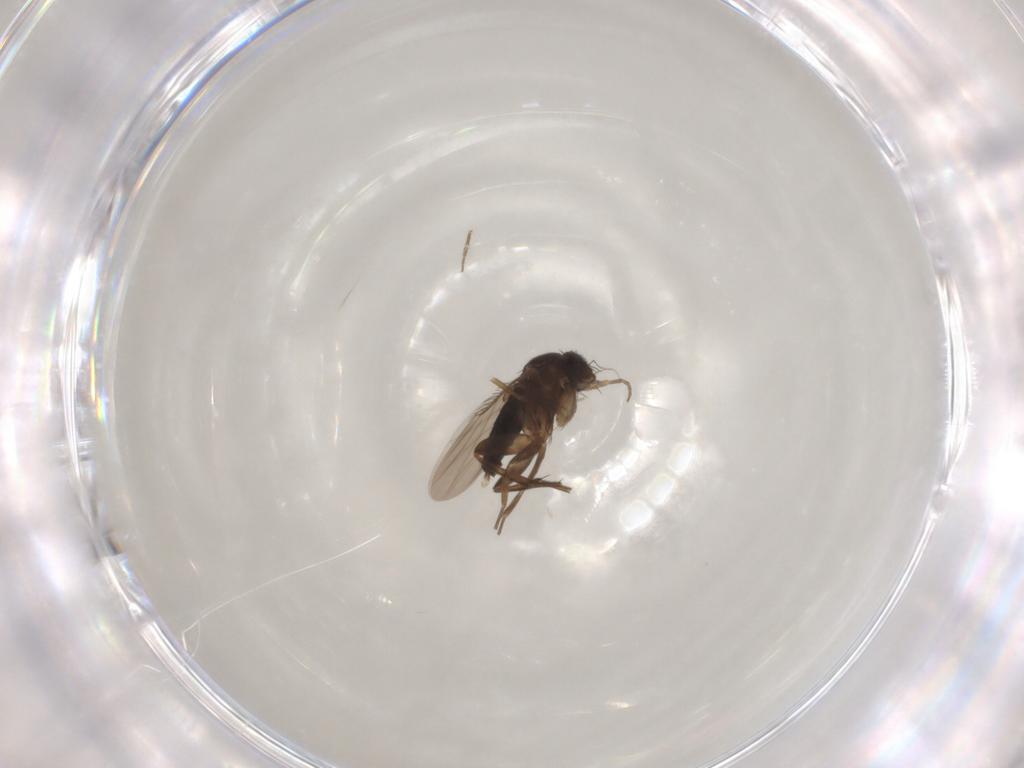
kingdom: Animalia
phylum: Arthropoda
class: Insecta
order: Diptera
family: Phoridae
